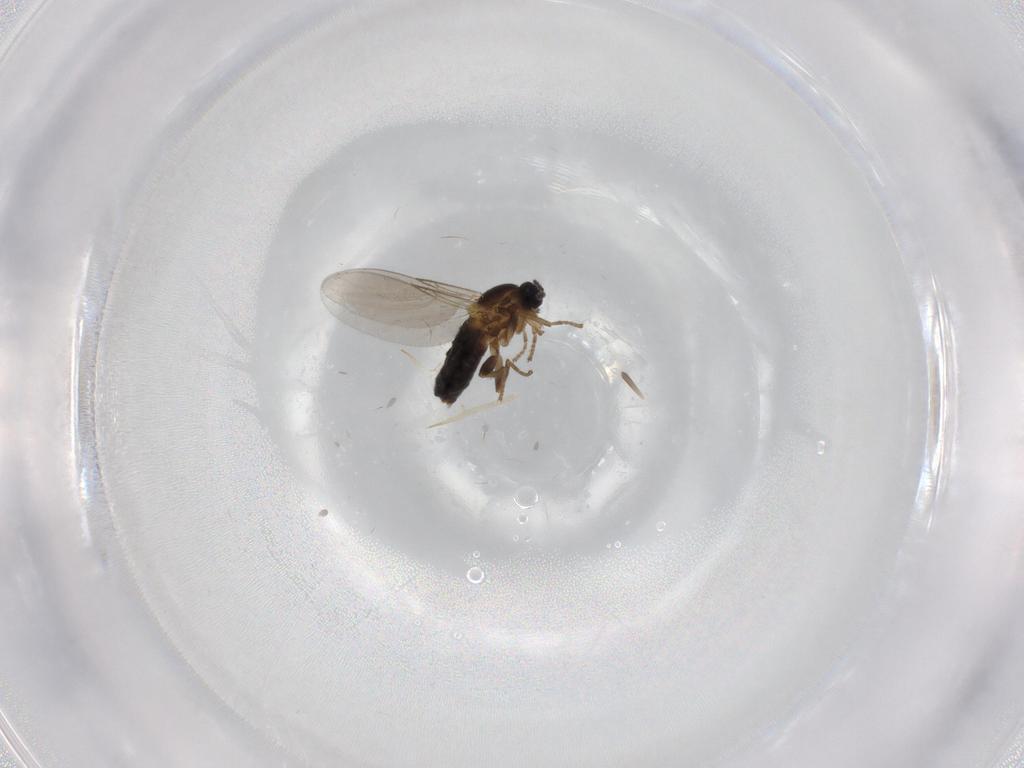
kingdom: Animalia
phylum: Arthropoda
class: Insecta
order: Diptera
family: Scatopsidae
